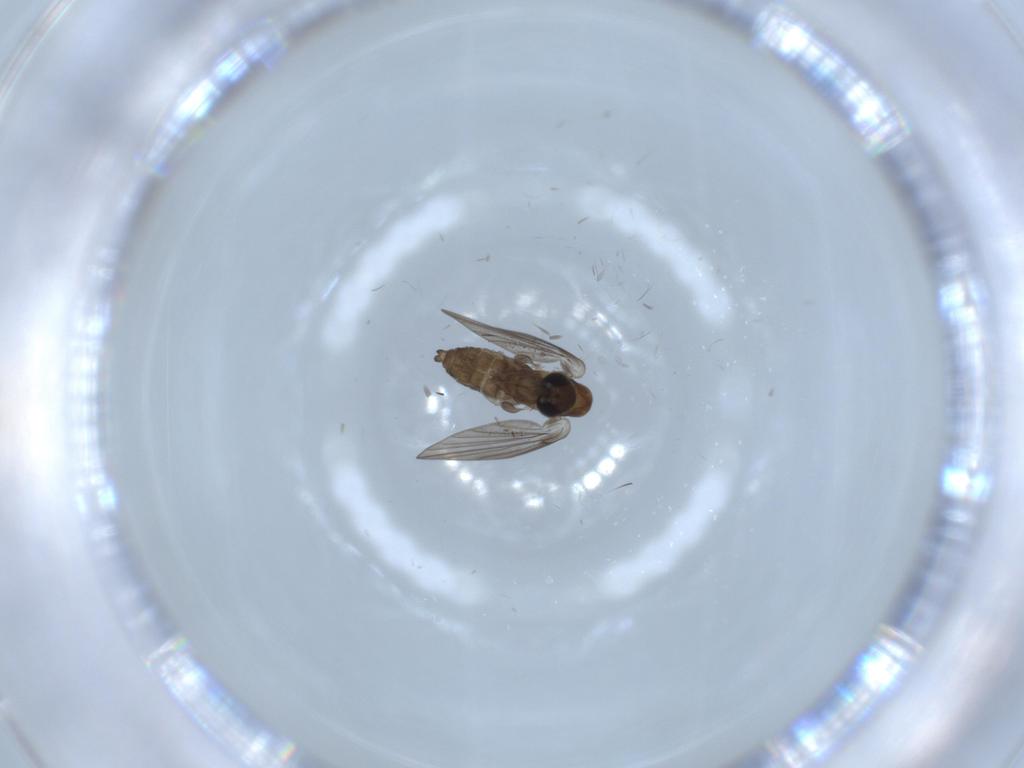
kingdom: Animalia
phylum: Arthropoda
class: Insecta
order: Diptera
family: Psychodidae
